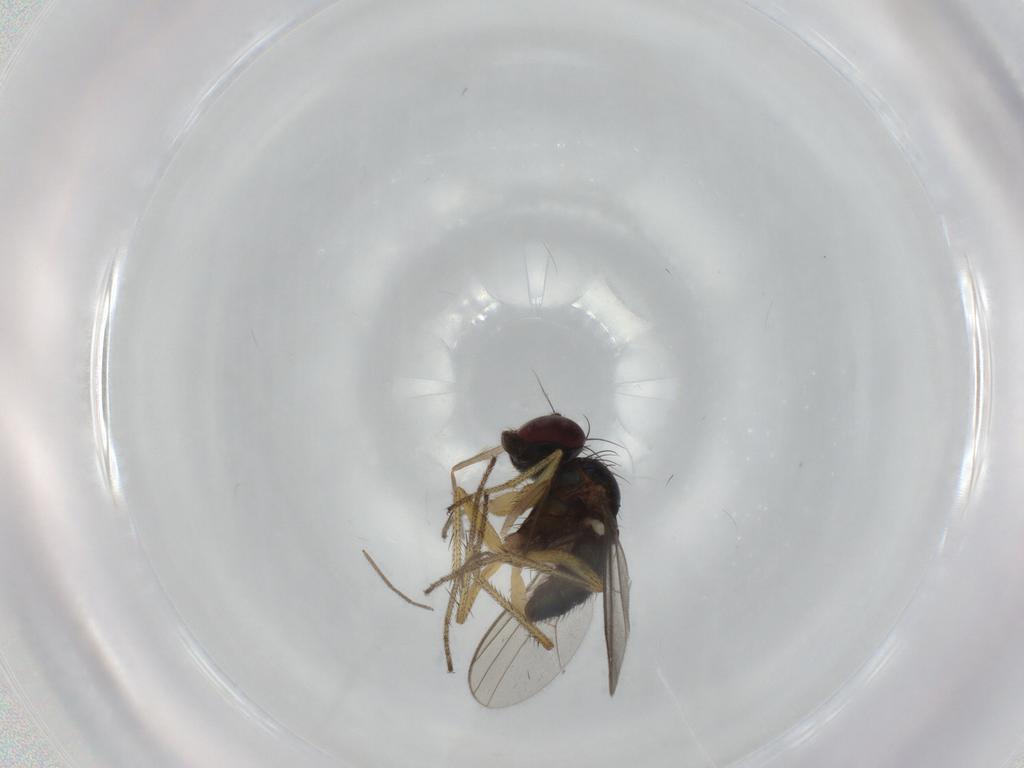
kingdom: Animalia
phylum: Arthropoda
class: Insecta
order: Diptera
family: Dolichopodidae
